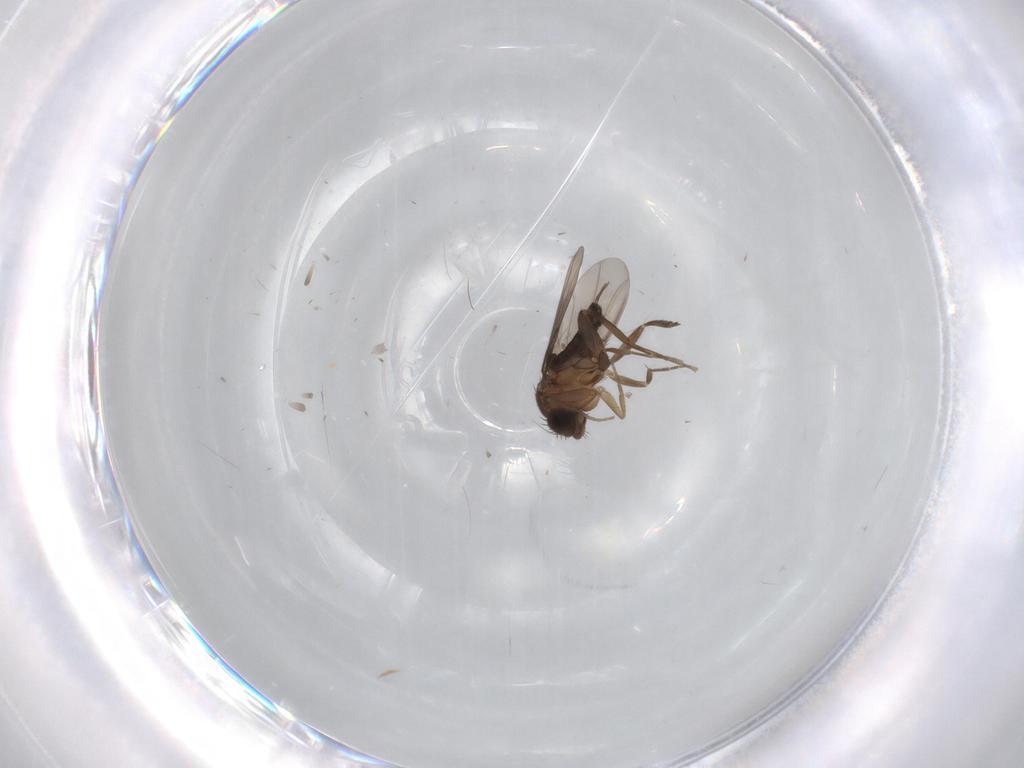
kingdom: Animalia
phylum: Arthropoda
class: Insecta
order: Diptera
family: Phoridae
